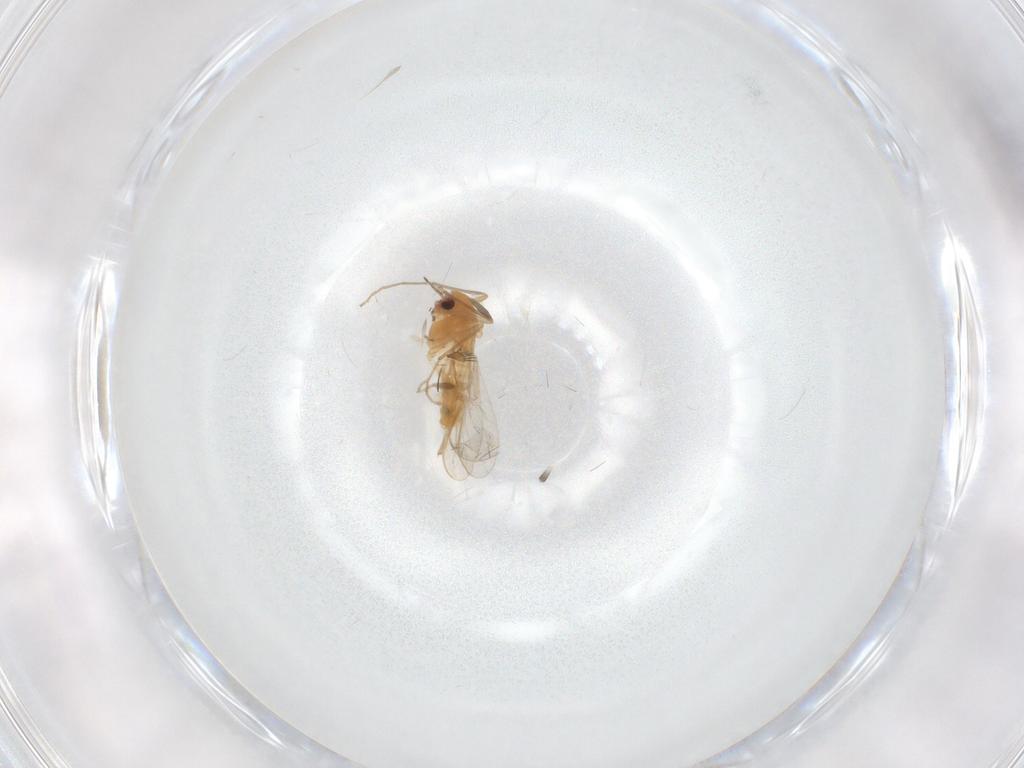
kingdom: Animalia
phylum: Arthropoda
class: Insecta
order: Diptera
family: Chironomidae
